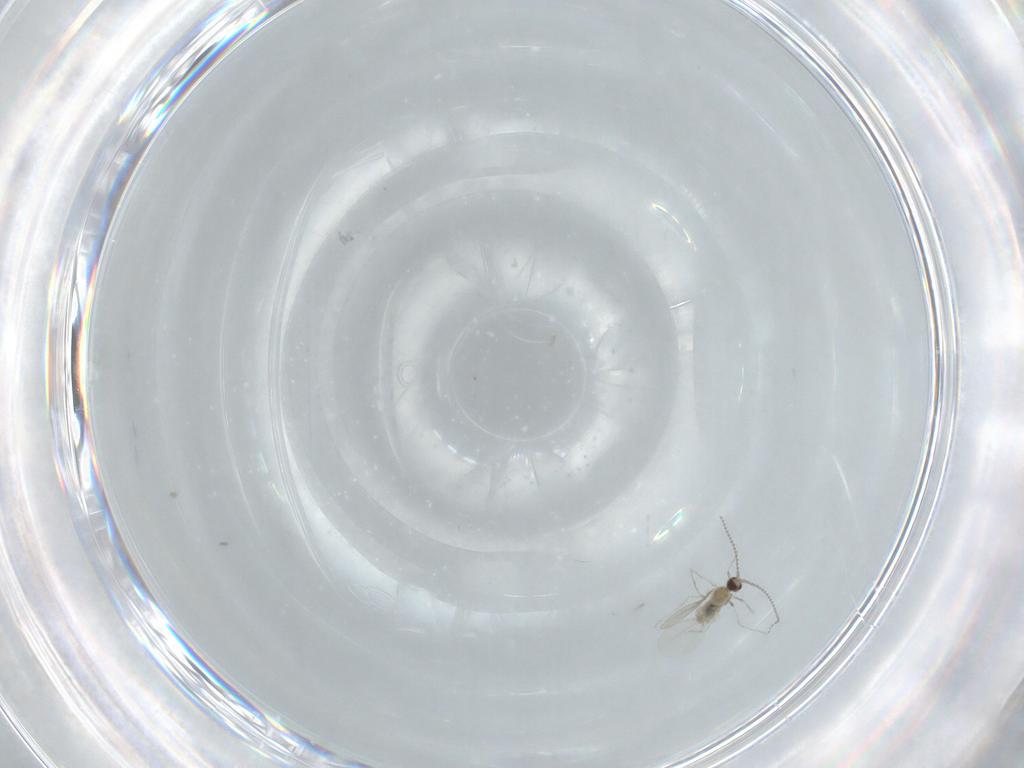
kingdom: Animalia
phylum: Arthropoda
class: Insecta
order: Diptera
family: Cecidomyiidae
